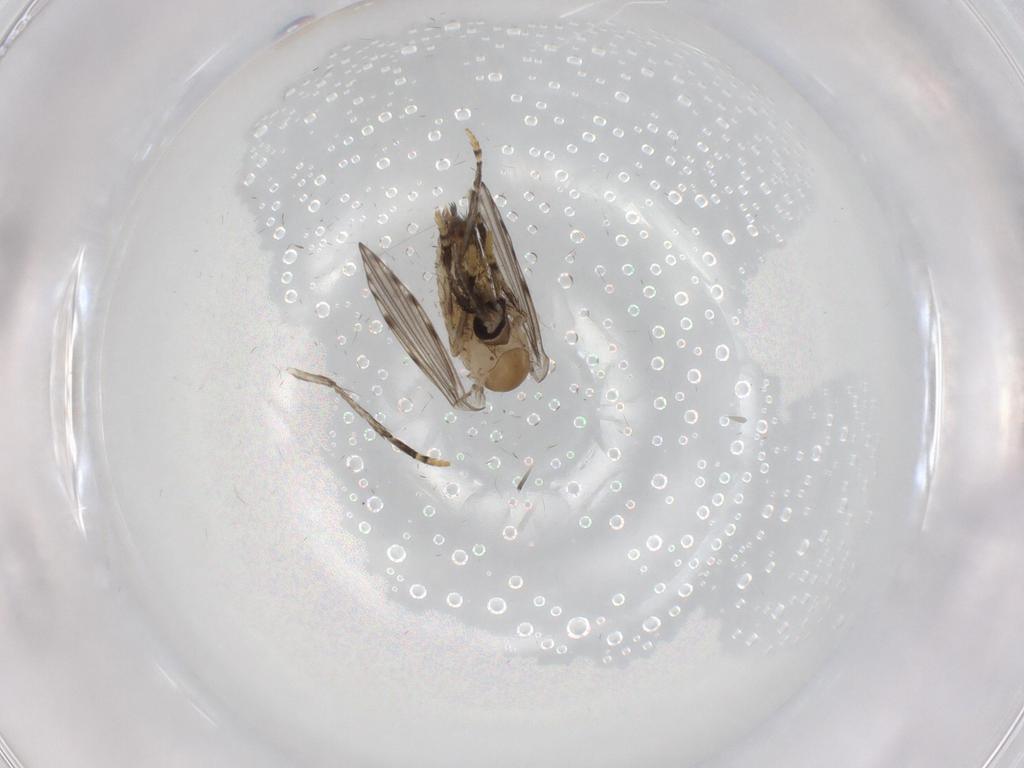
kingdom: Animalia
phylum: Arthropoda
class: Insecta
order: Diptera
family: Psychodidae
